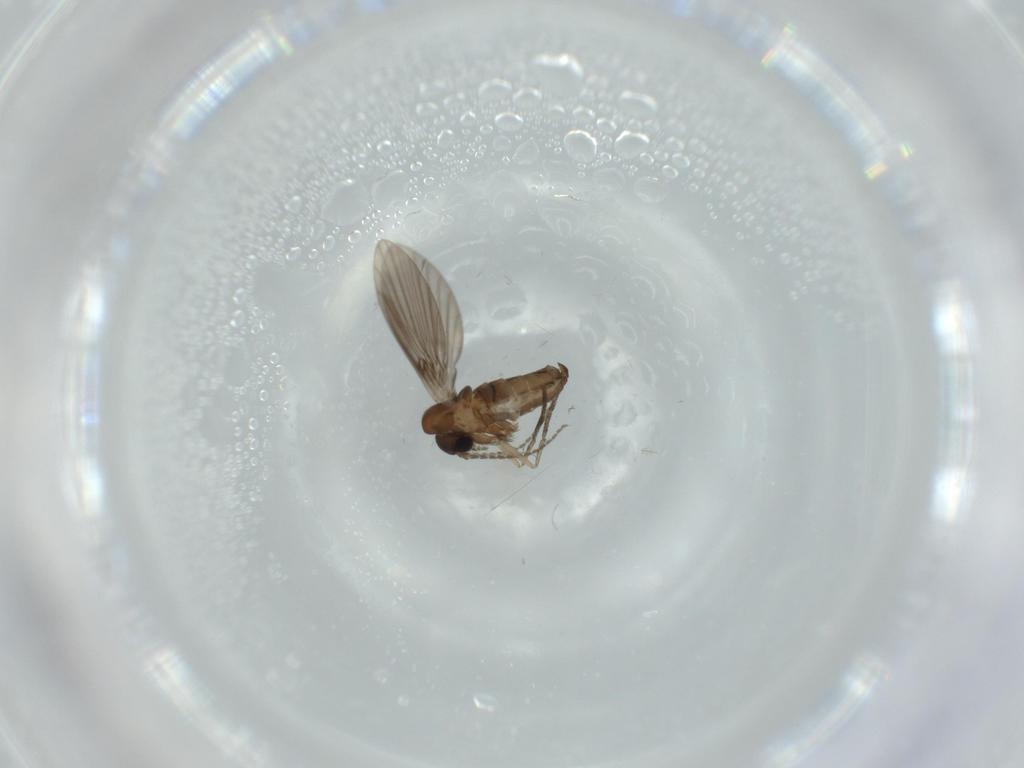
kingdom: Animalia
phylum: Arthropoda
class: Insecta
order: Diptera
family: Psychodidae
